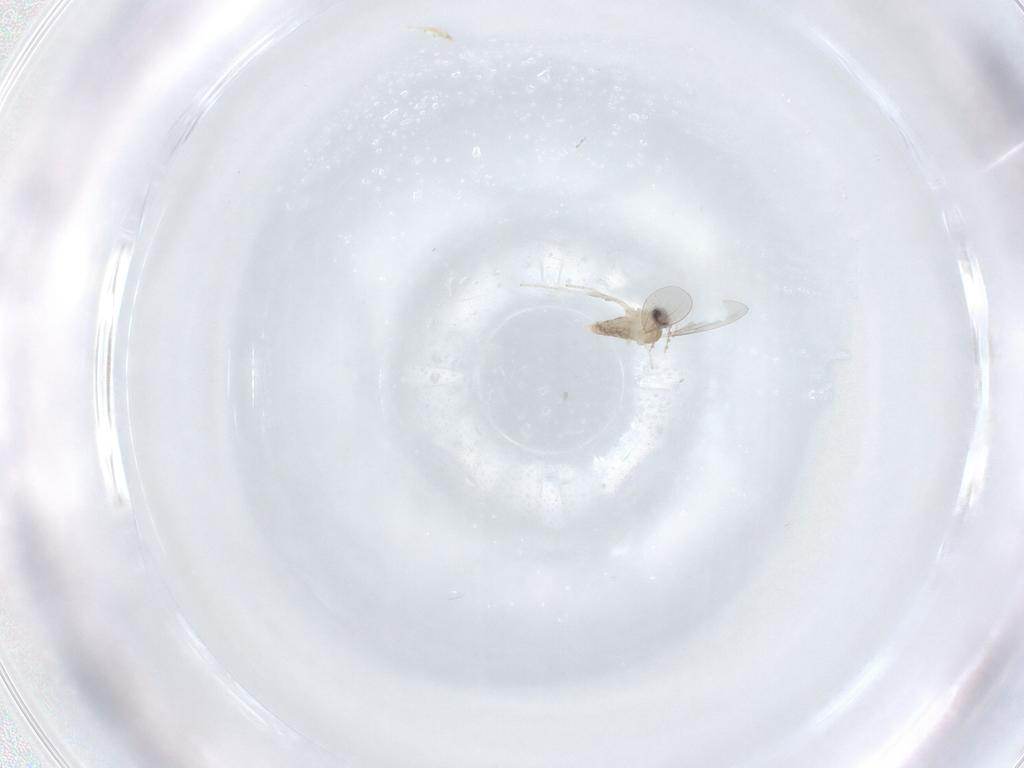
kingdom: Animalia
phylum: Arthropoda
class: Insecta
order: Diptera
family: Cecidomyiidae
